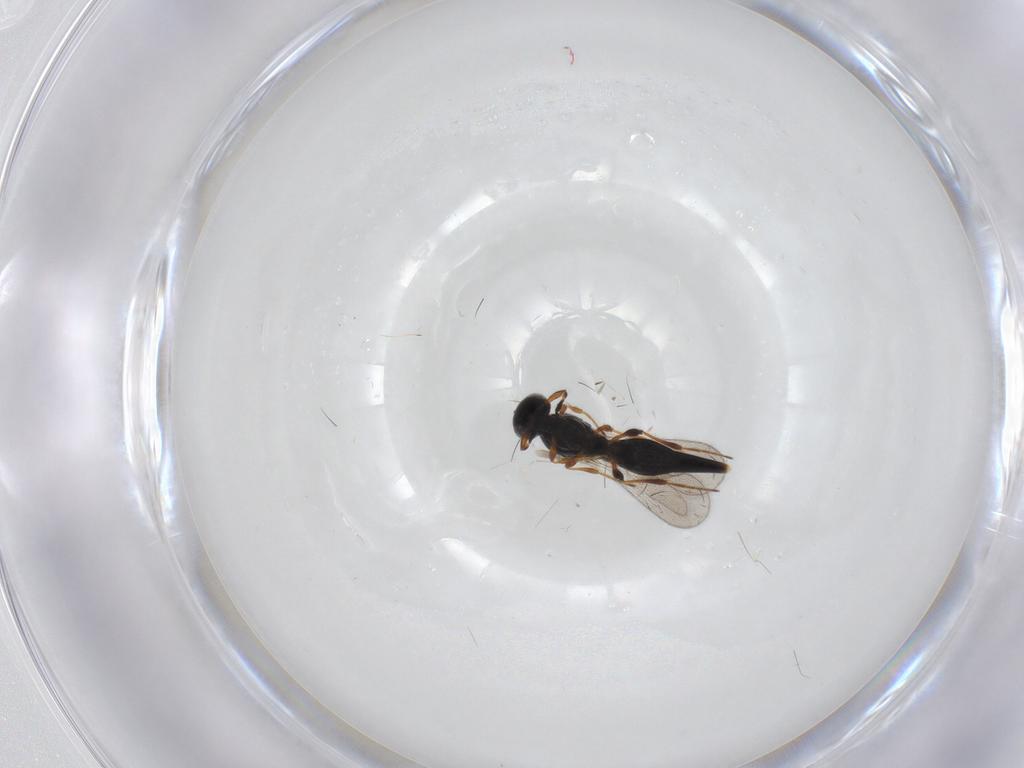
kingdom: Animalia
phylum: Arthropoda
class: Insecta
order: Hymenoptera
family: Platygastridae
